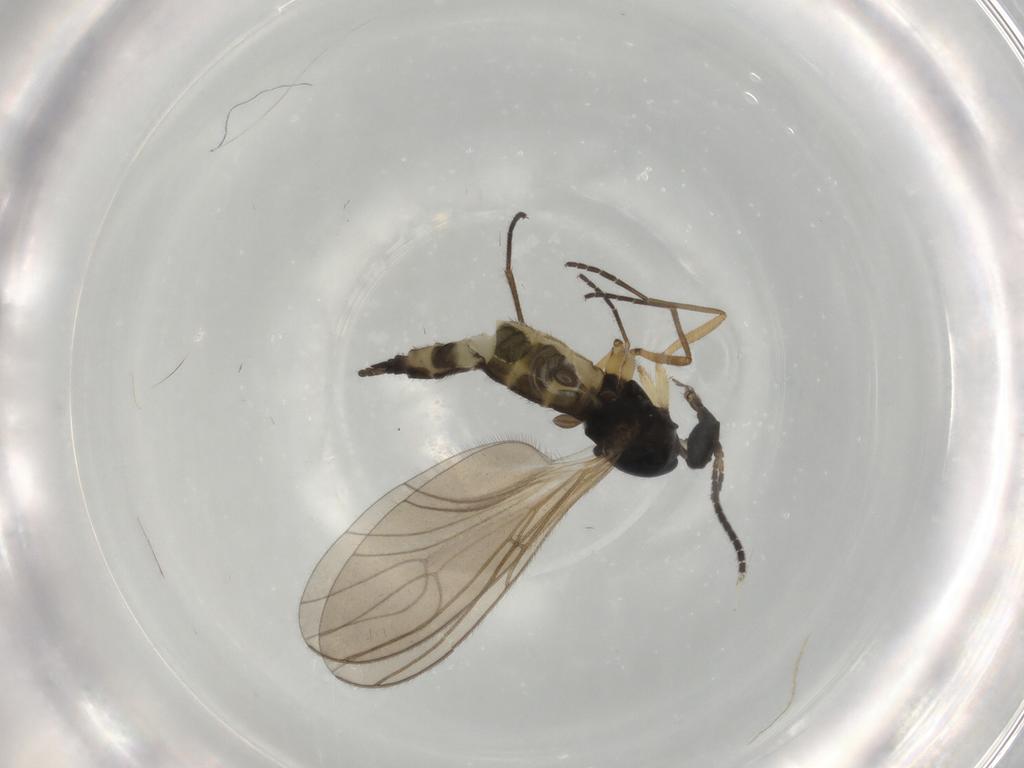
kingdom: Animalia
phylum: Arthropoda
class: Insecta
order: Diptera
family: Sciaridae
